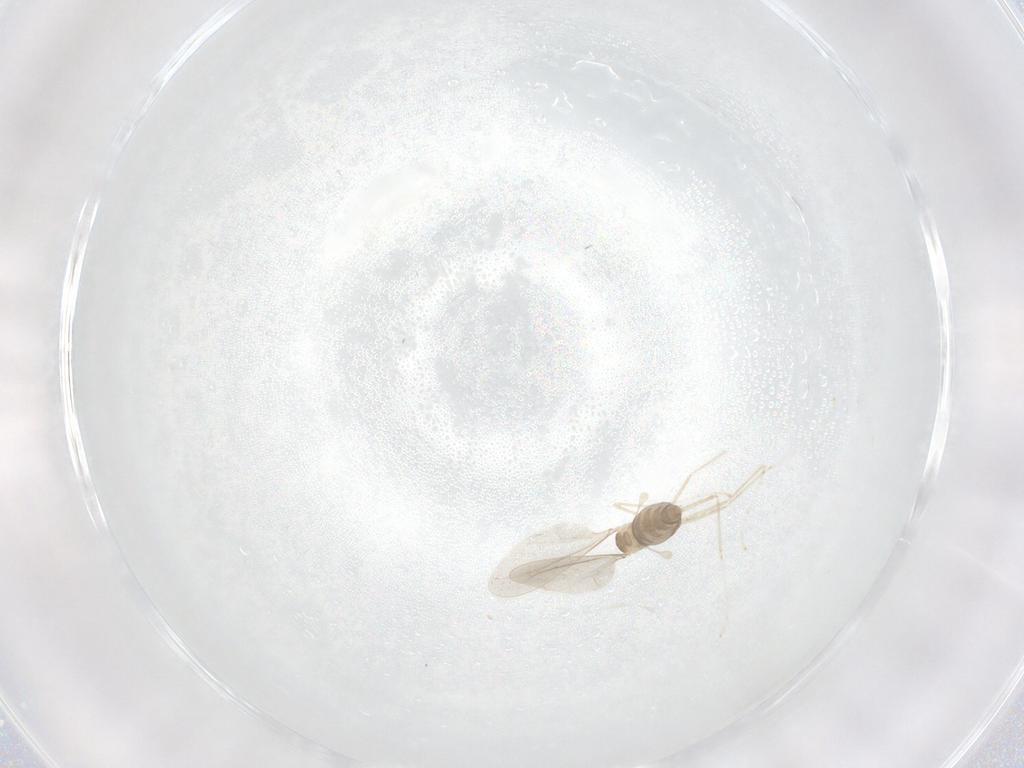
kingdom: Animalia
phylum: Arthropoda
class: Insecta
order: Diptera
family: Cecidomyiidae
